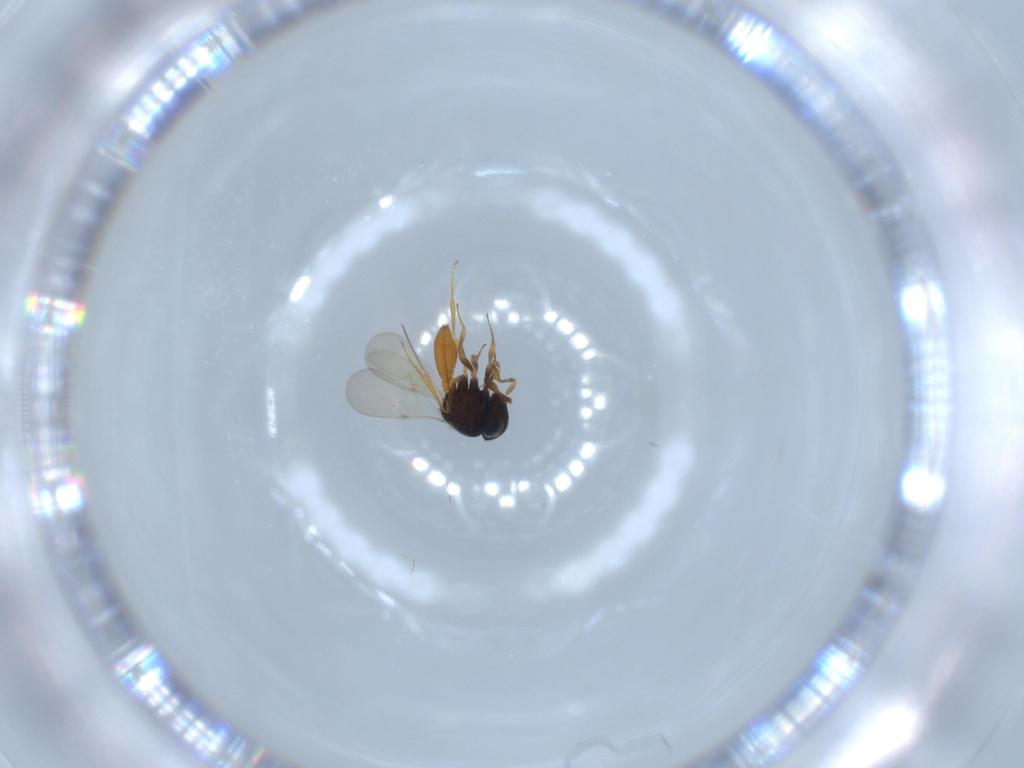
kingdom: Animalia
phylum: Arthropoda
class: Insecta
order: Hymenoptera
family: Scelionidae
